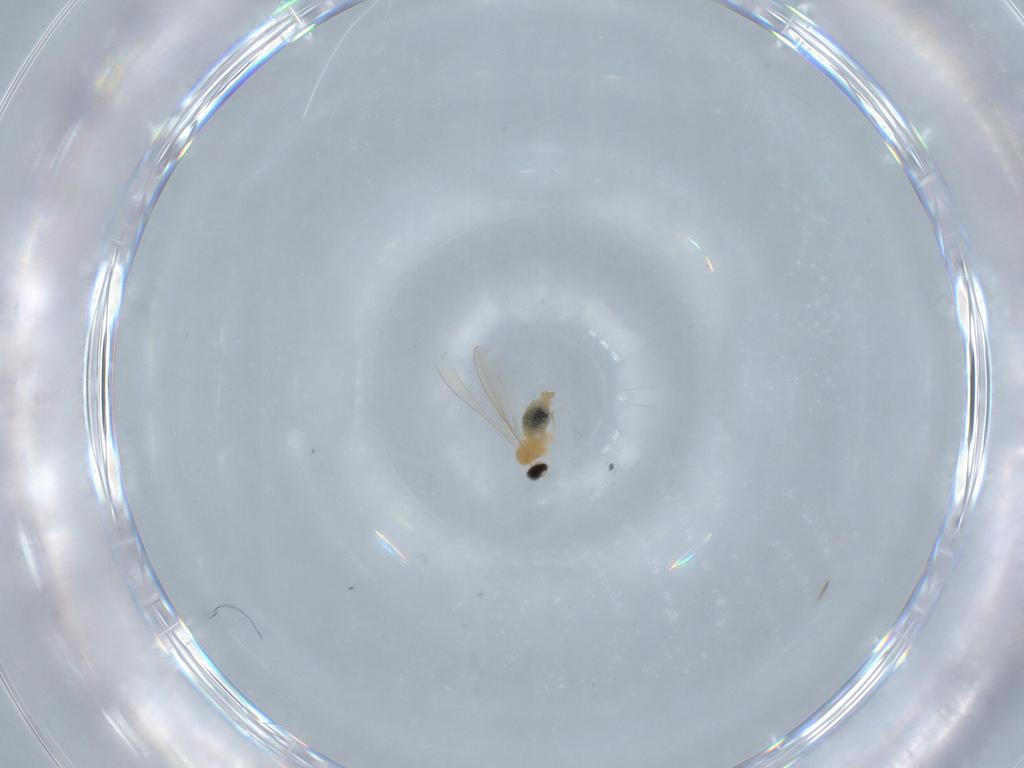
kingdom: Animalia
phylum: Arthropoda
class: Insecta
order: Diptera
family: Cecidomyiidae
